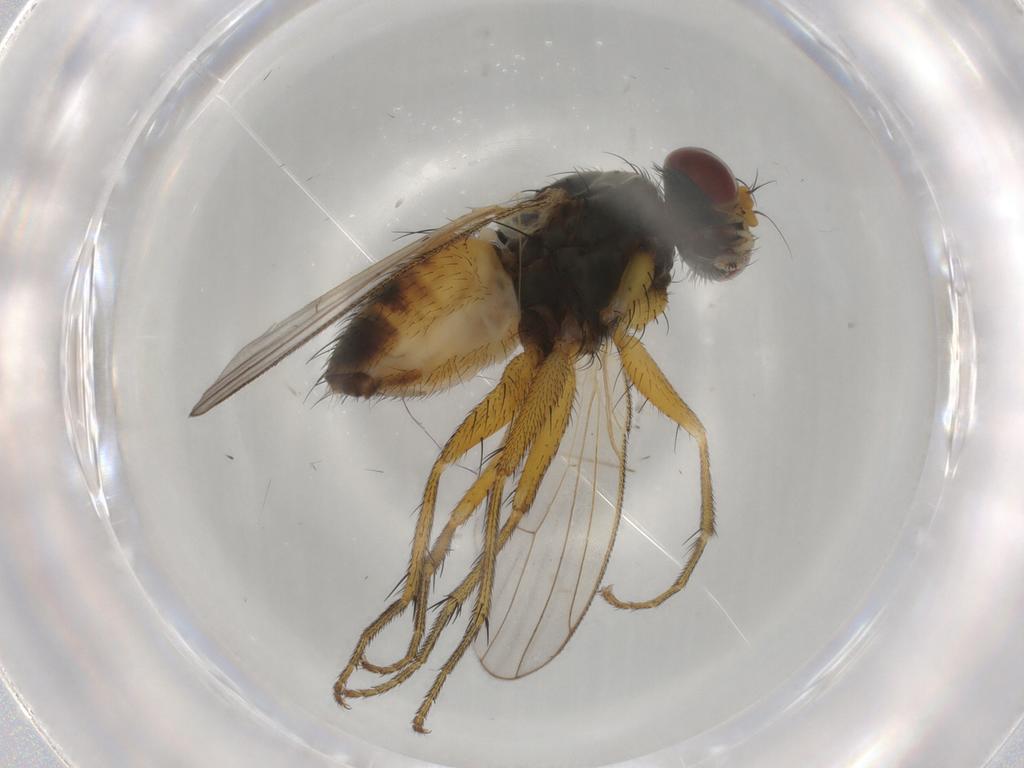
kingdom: Animalia
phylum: Arthropoda
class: Insecta
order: Diptera
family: Muscidae
